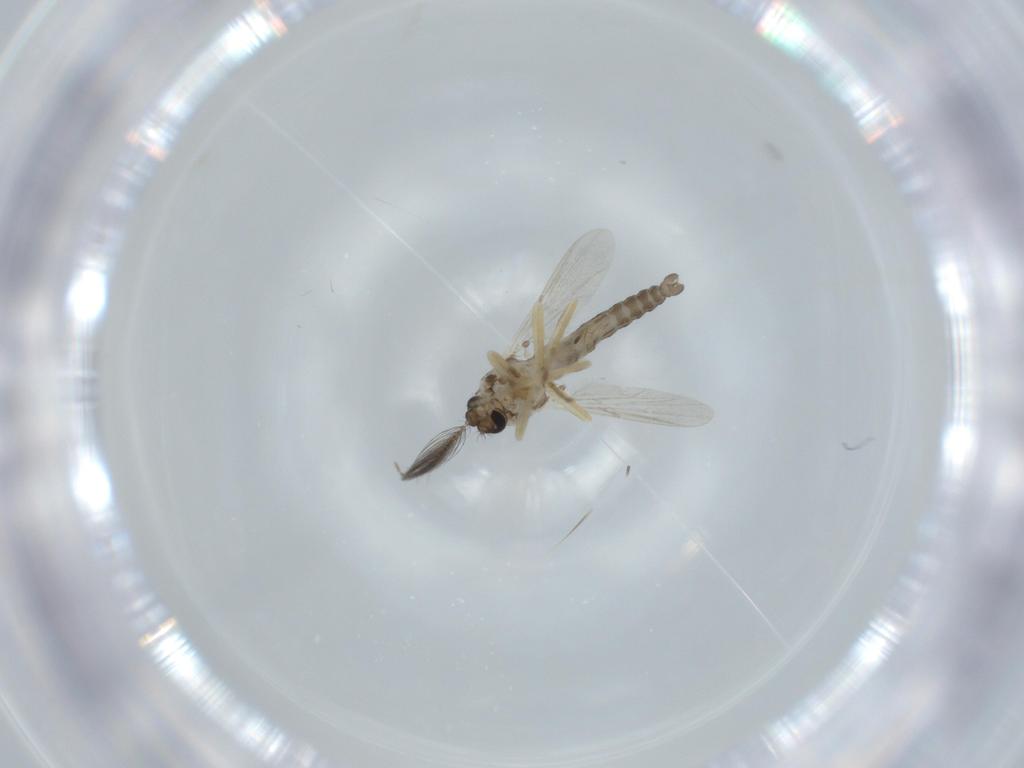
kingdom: Animalia
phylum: Arthropoda
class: Insecta
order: Diptera
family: Ceratopogonidae
